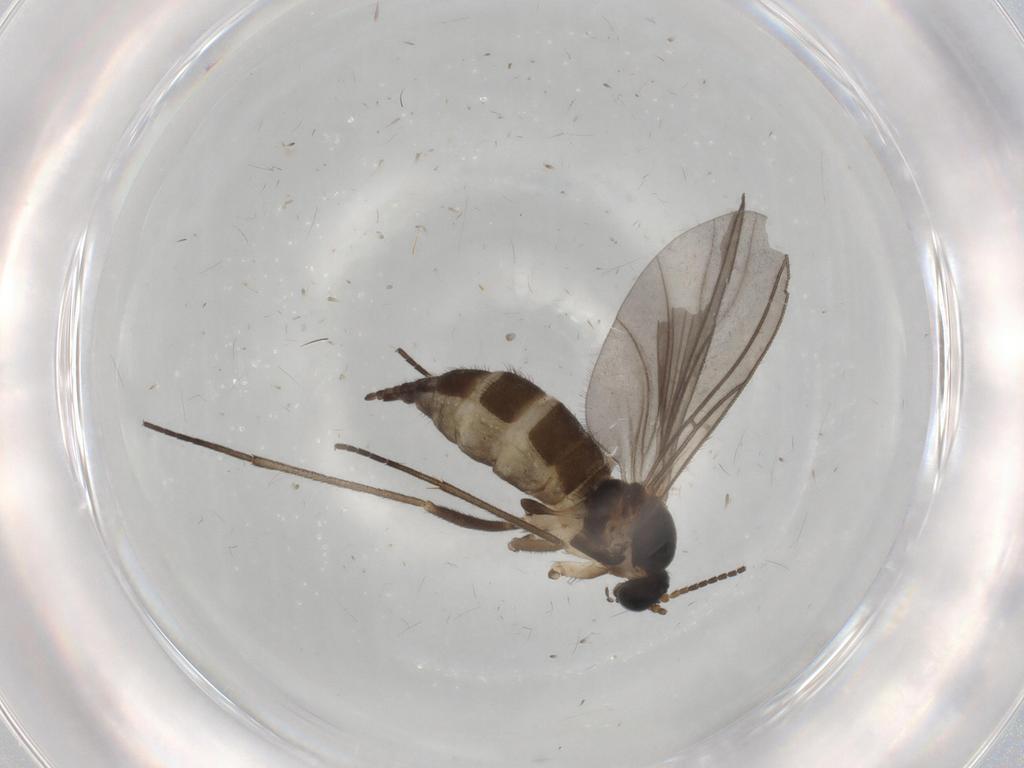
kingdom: Animalia
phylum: Arthropoda
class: Insecta
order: Diptera
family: Sciaridae
